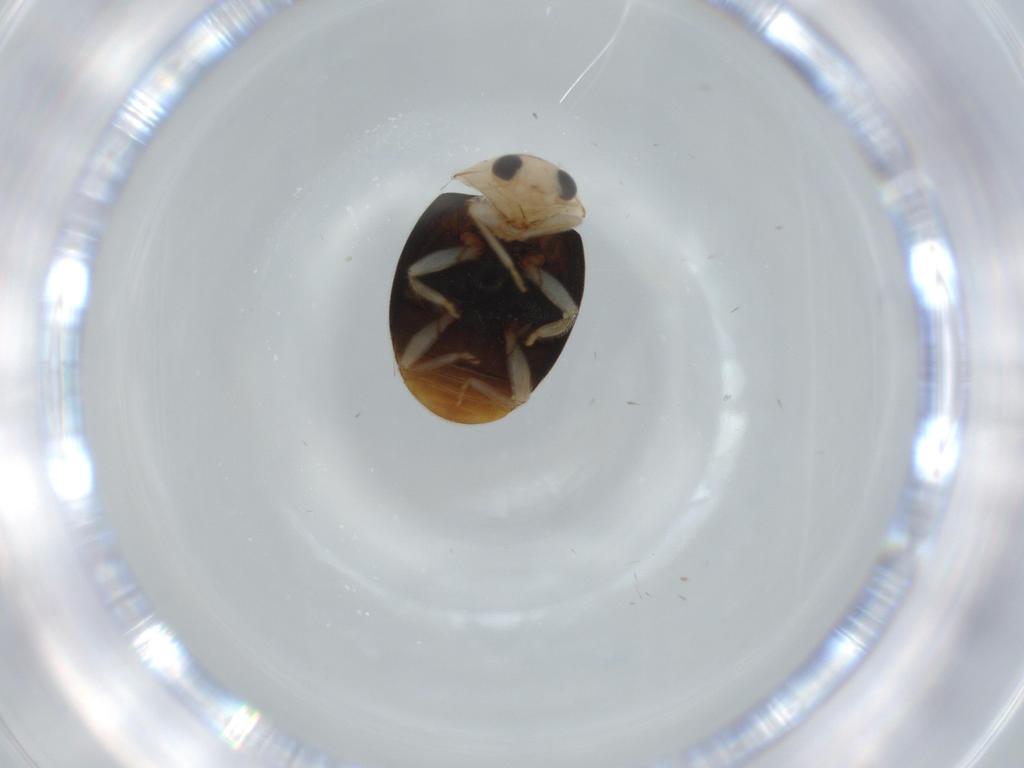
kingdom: Animalia
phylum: Arthropoda
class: Insecta
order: Coleoptera
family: Coccinellidae
